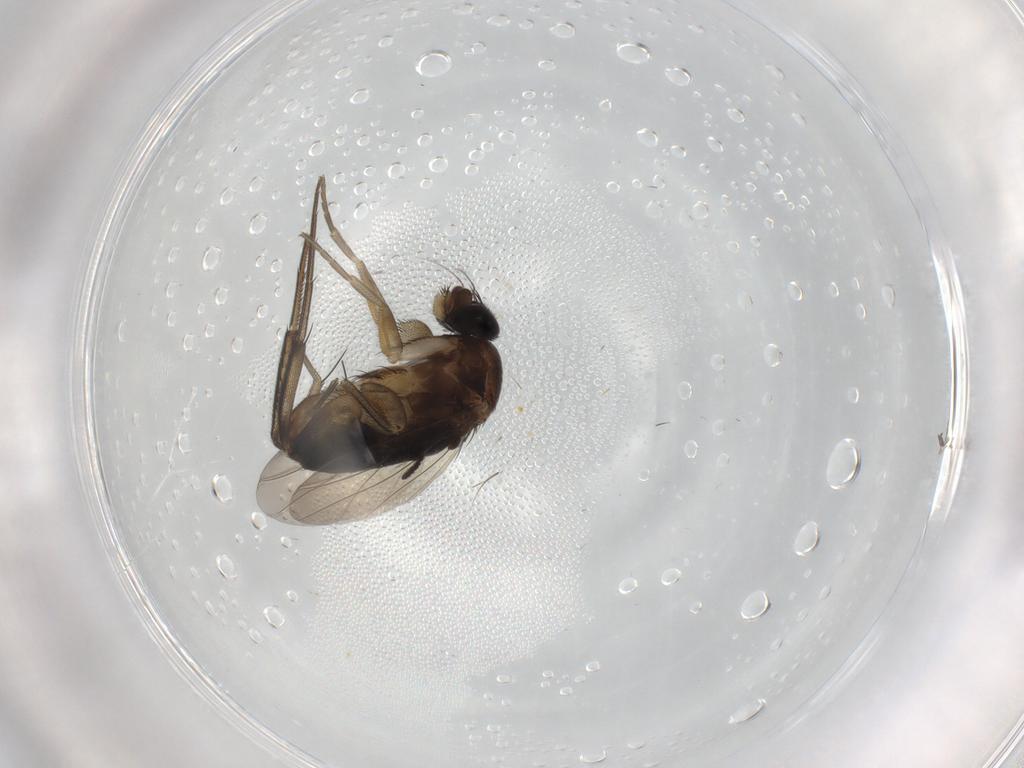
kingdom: Animalia
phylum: Arthropoda
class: Insecta
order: Diptera
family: Phoridae
